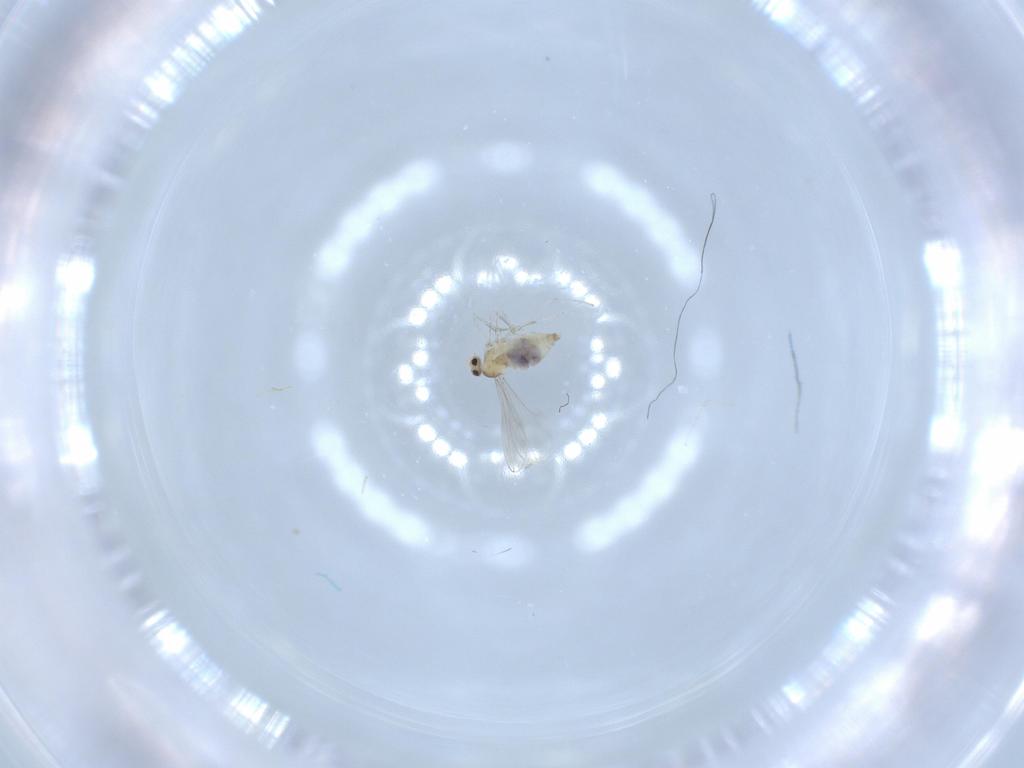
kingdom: Animalia
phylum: Arthropoda
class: Insecta
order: Diptera
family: Cecidomyiidae
